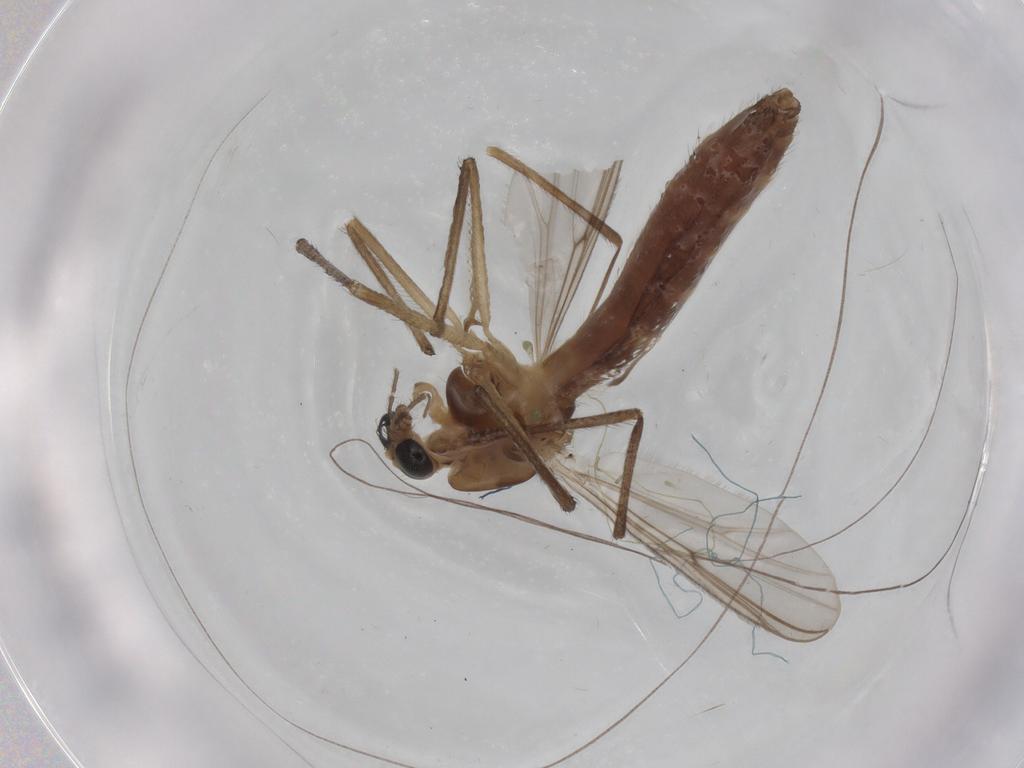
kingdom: Animalia
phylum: Arthropoda
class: Insecta
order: Diptera
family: Chironomidae
